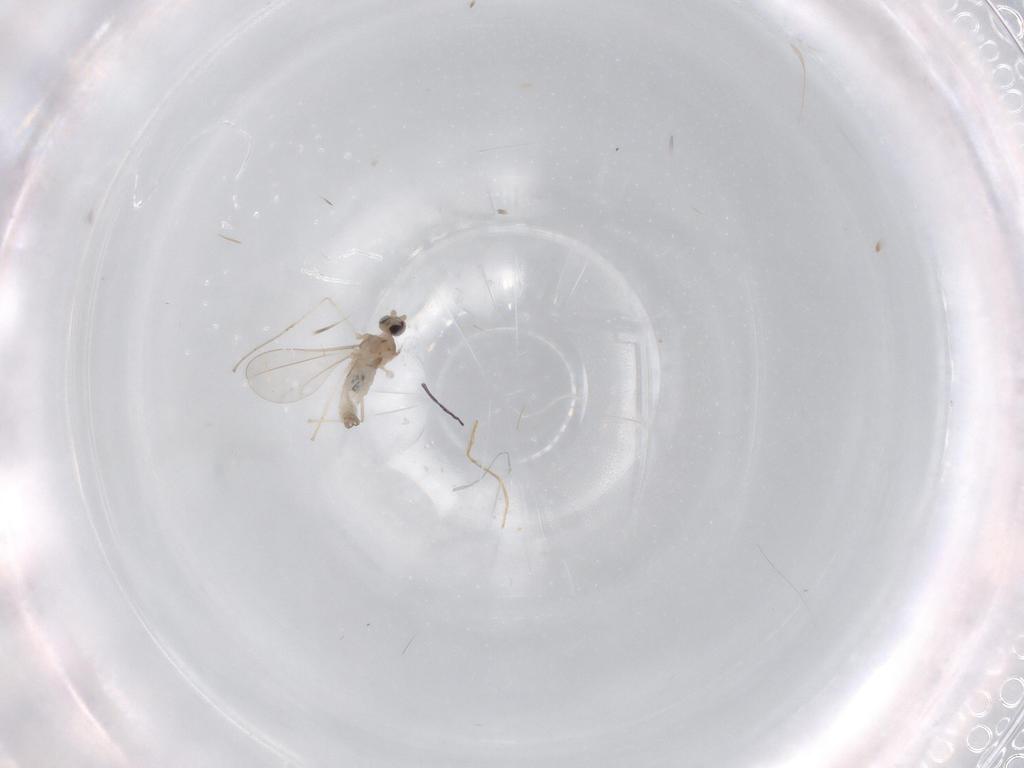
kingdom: Animalia
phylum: Arthropoda
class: Insecta
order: Diptera
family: Cecidomyiidae
